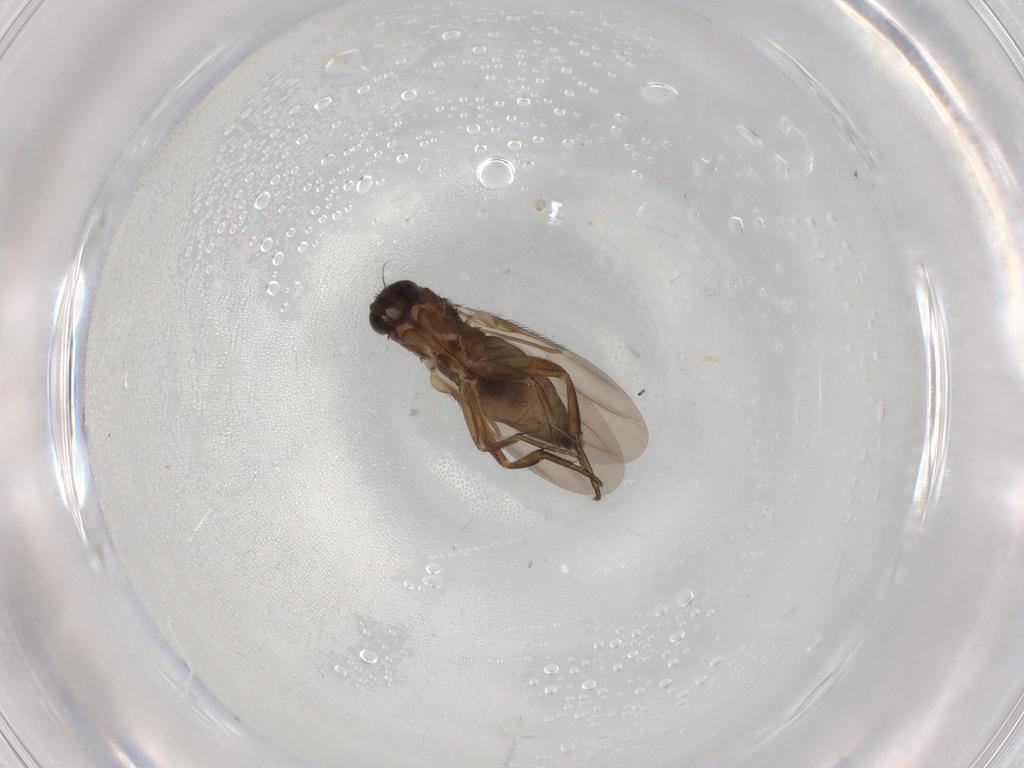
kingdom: Animalia
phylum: Arthropoda
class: Insecta
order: Diptera
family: Phoridae
